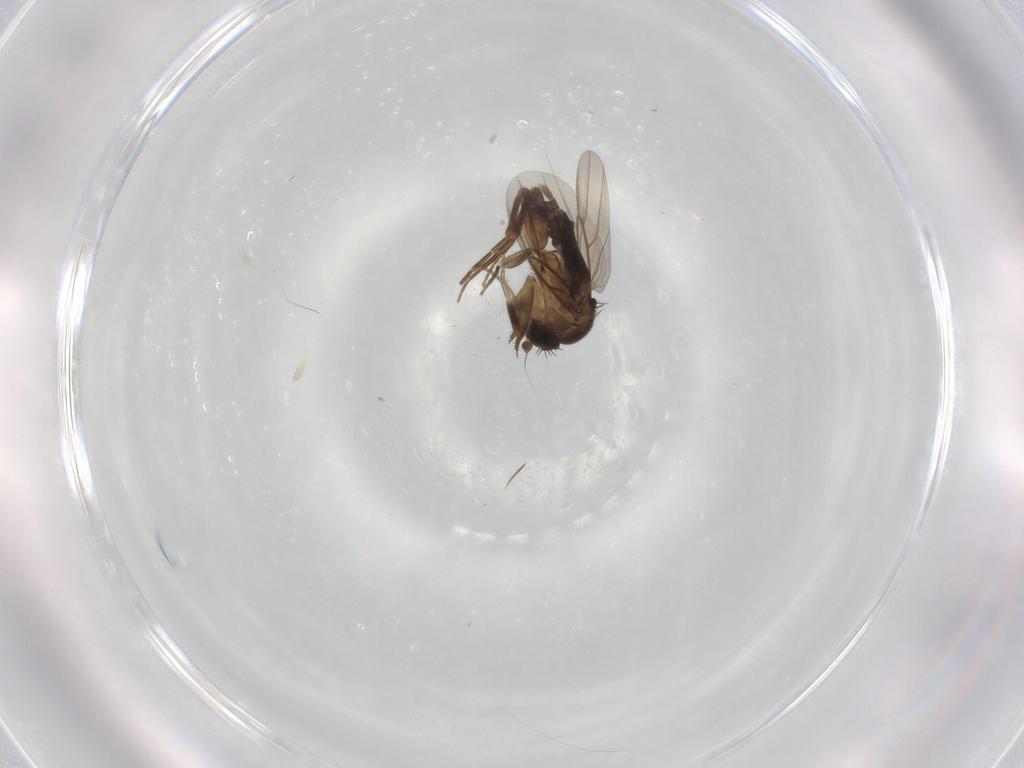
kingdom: Animalia
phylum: Arthropoda
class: Insecta
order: Diptera
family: Phoridae
